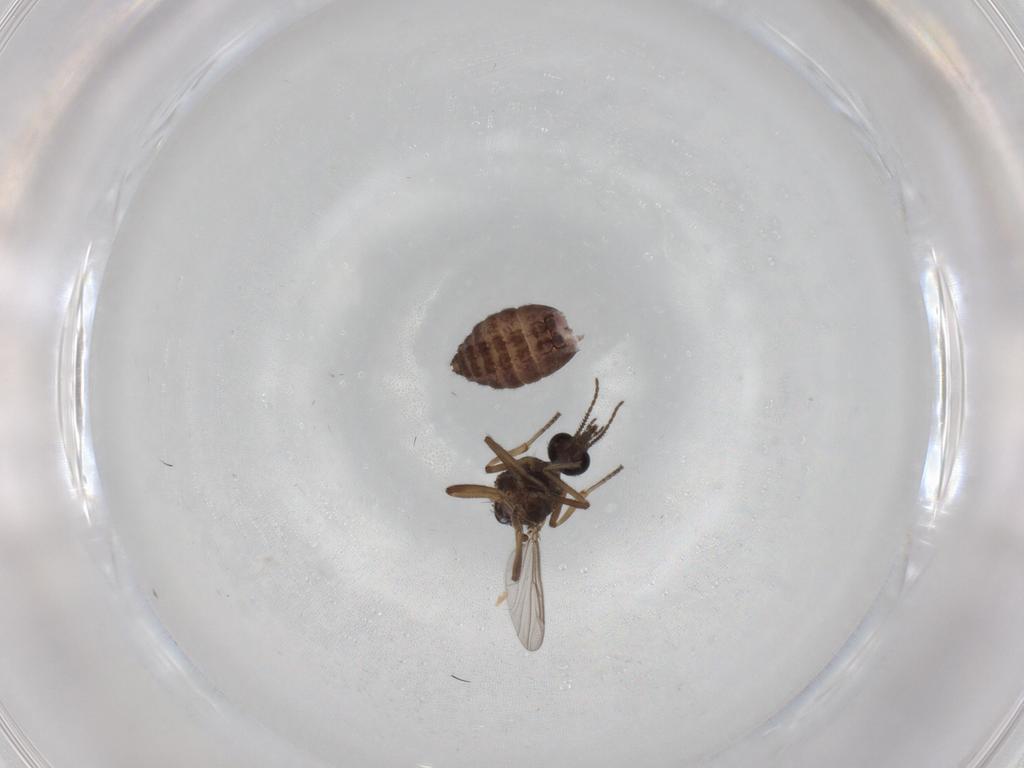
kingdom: Animalia
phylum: Arthropoda
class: Insecta
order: Diptera
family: Ceratopogonidae
